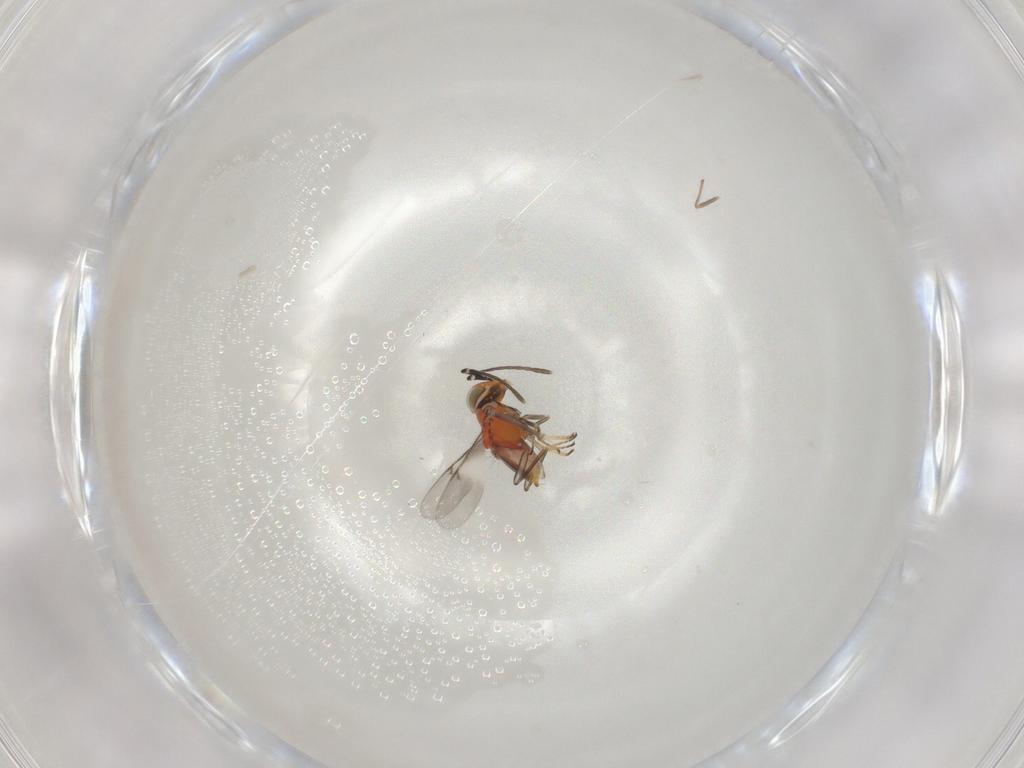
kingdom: Animalia
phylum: Arthropoda
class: Insecta
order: Hymenoptera
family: Encyrtidae
